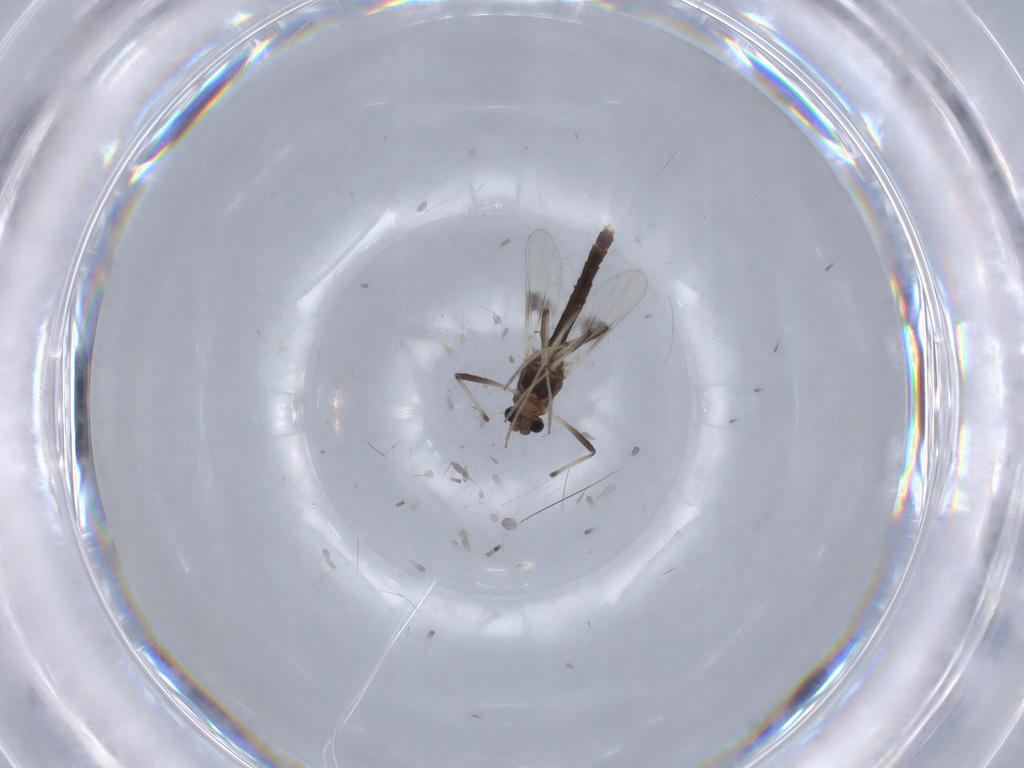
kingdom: Animalia
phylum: Arthropoda
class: Insecta
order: Diptera
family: Chironomidae
